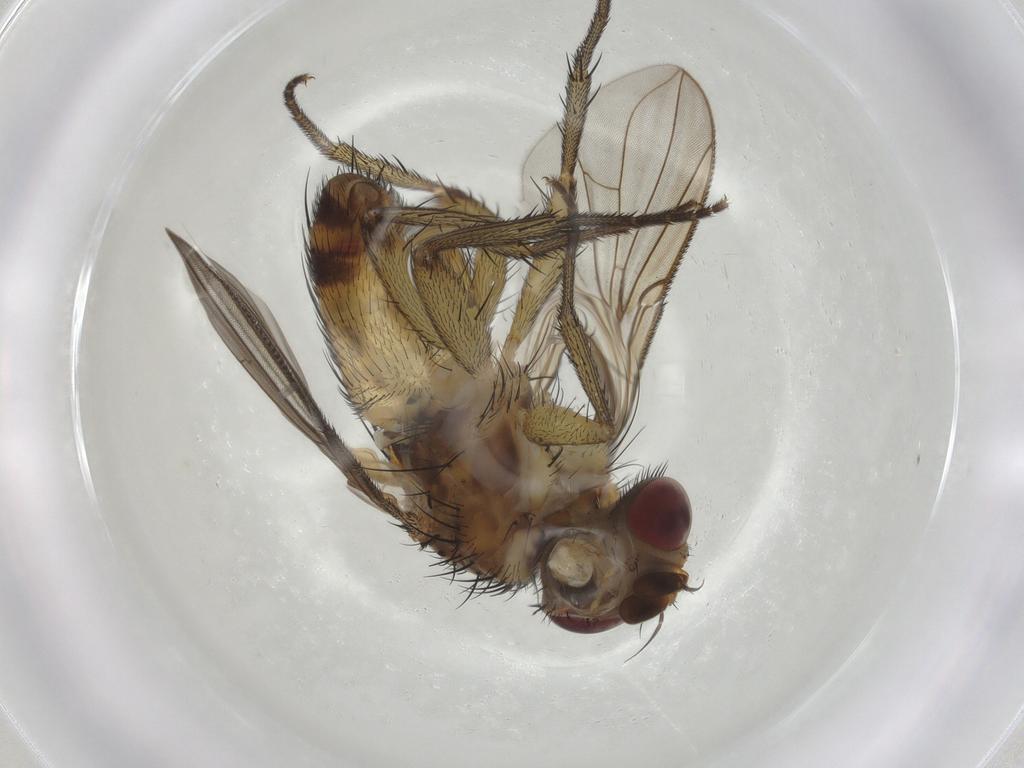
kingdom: Animalia
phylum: Arthropoda
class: Insecta
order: Diptera
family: Tachinidae
